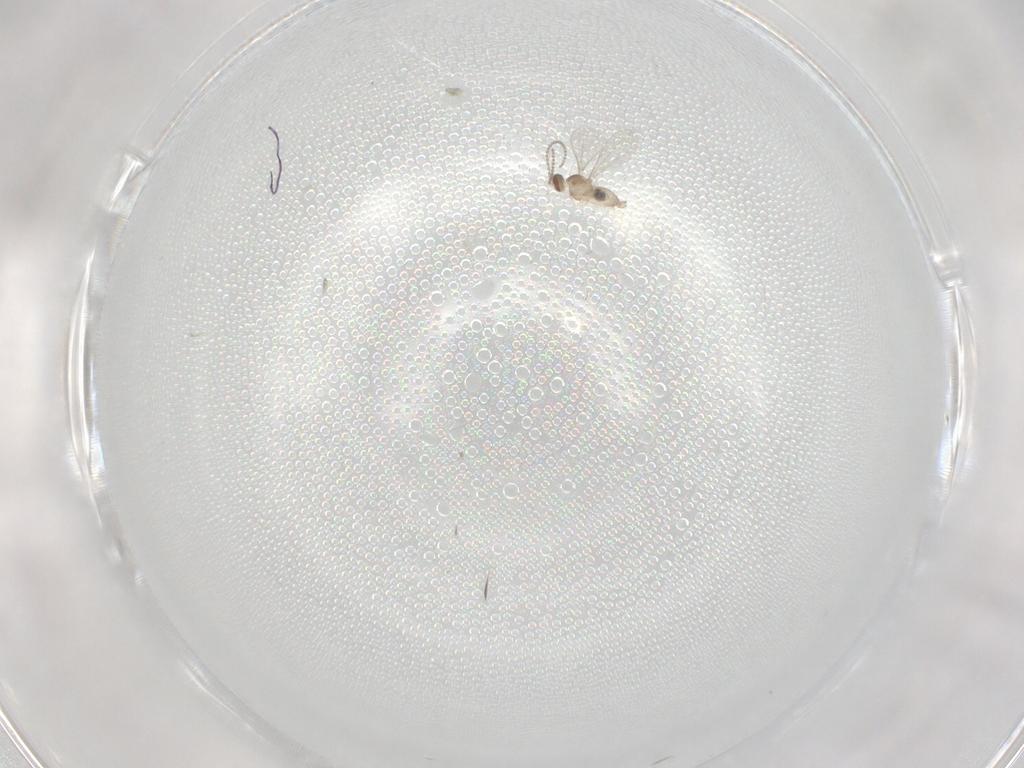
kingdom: Animalia
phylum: Arthropoda
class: Insecta
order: Diptera
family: Cecidomyiidae
